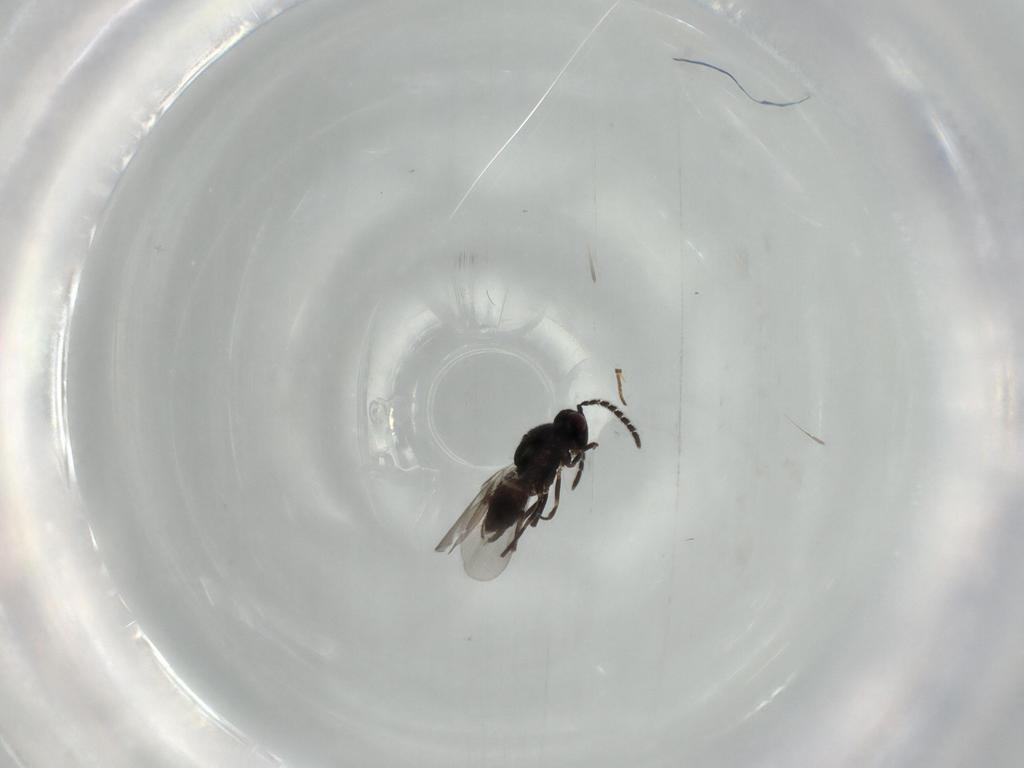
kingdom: Animalia
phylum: Arthropoda
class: Insecta
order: Hymenoptera
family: Encyrtidae
